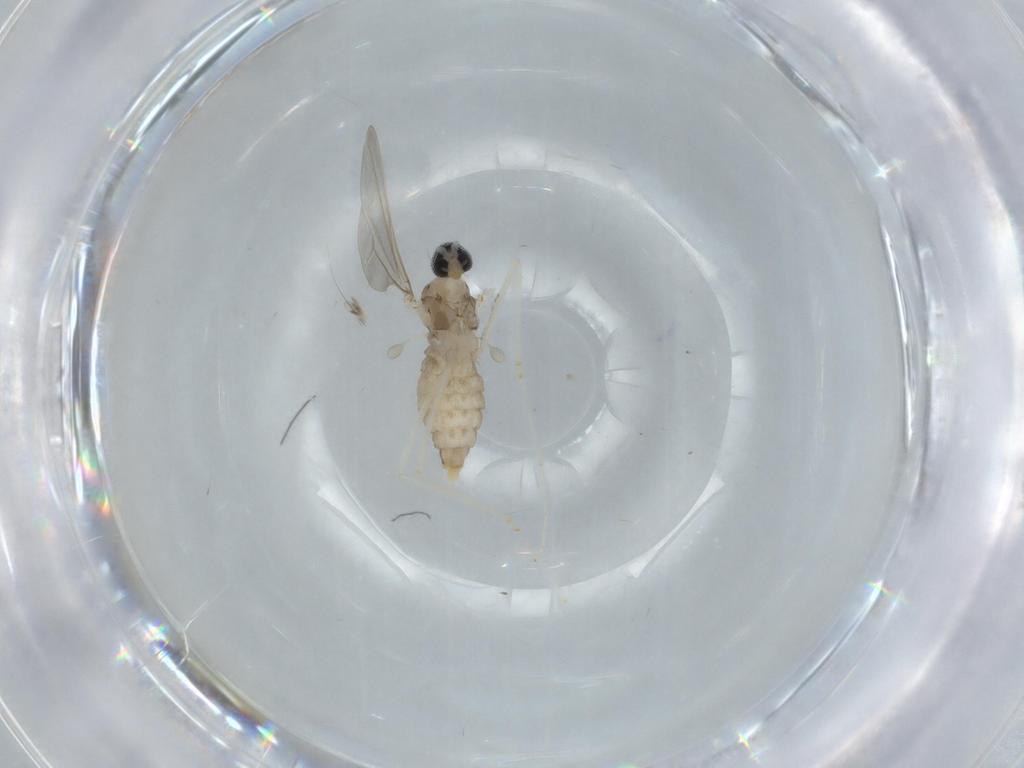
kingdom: Animalia
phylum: Arthropoda
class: Insecta
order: Diptera
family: Cecidomyiidae
